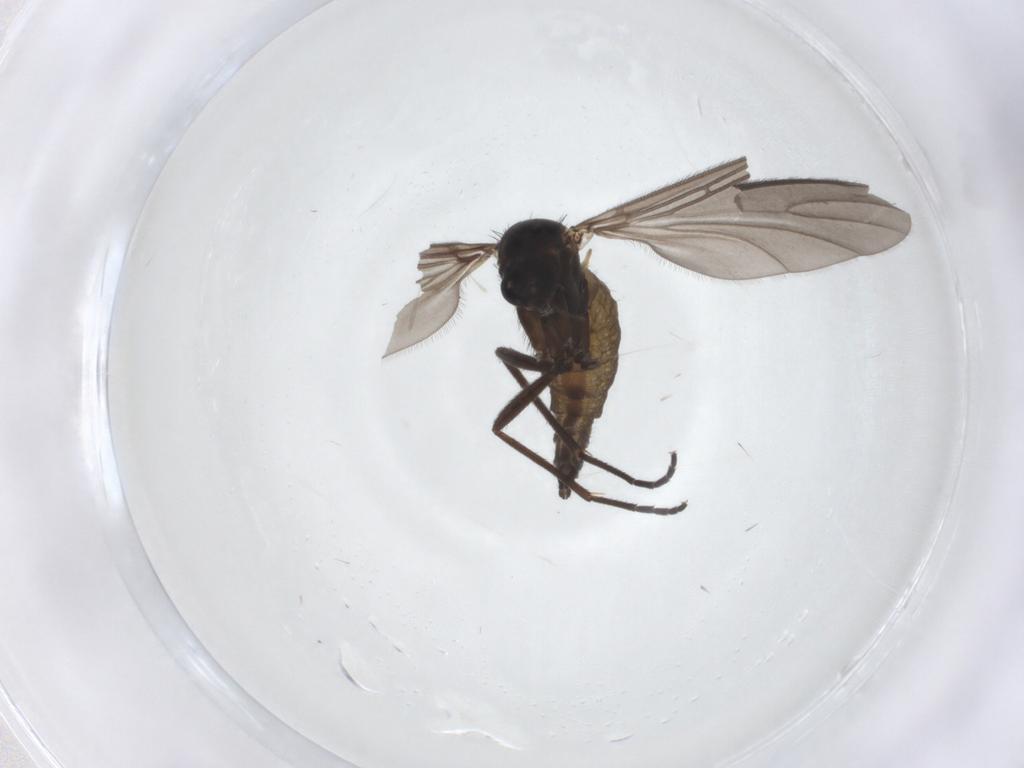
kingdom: Animalia
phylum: Arthropoda
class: Insecta
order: Diptera
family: Sciaridae
